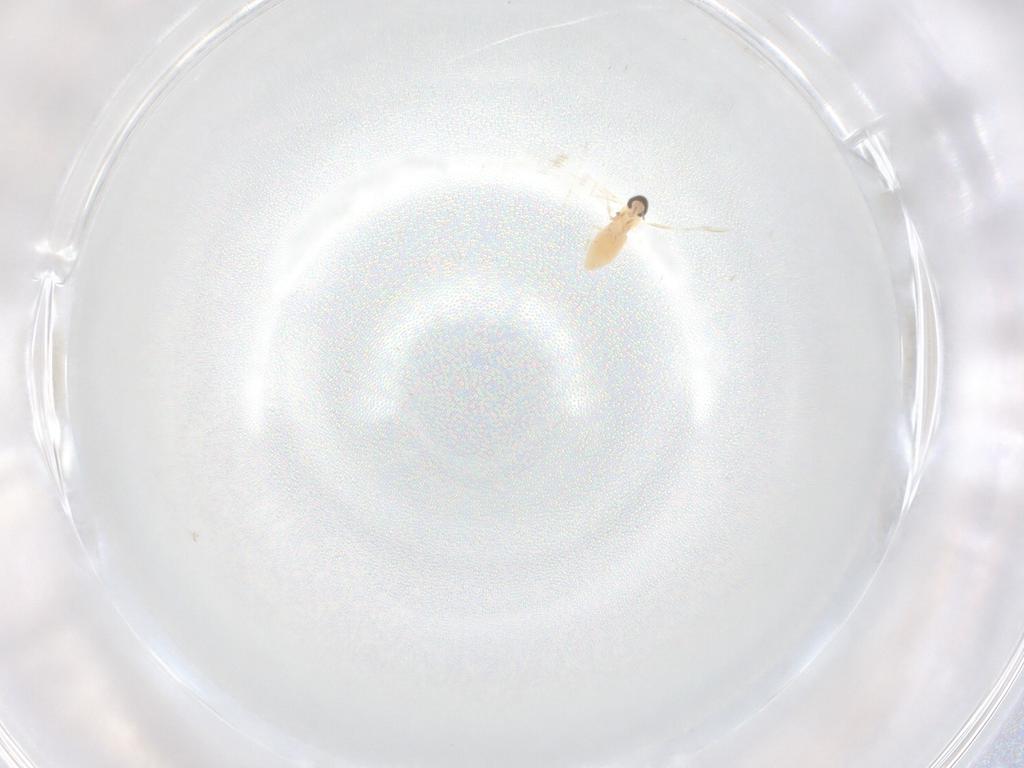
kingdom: Animalia
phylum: Arthropoda
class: Insecta
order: Diptera
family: Cecidomyiidae
